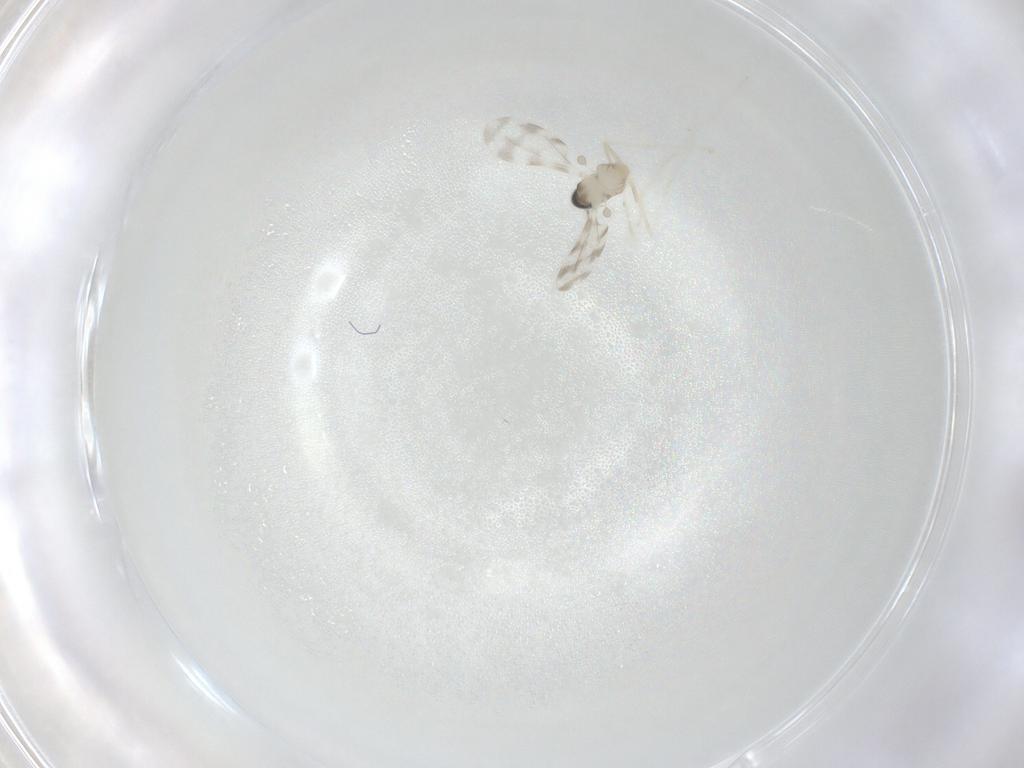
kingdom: Animalia
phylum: Arthropoda
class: Insecta
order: Diptera
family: Cecidomyiidae
